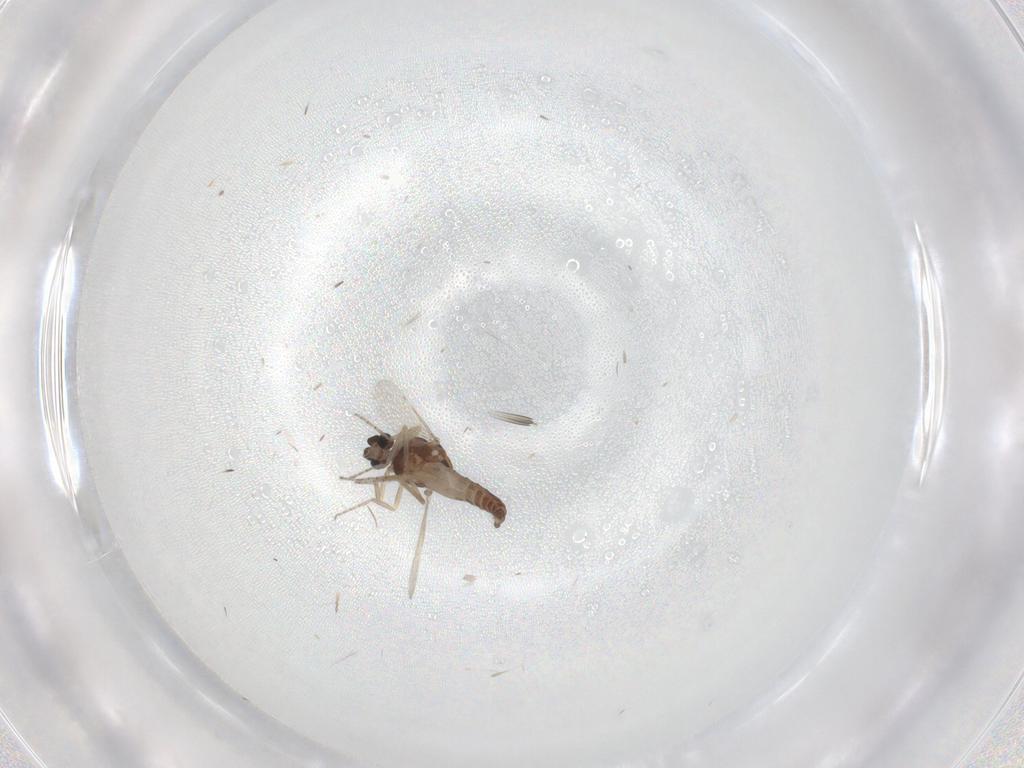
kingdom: Animalia
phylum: Arthropoda
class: Insecta
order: Diptera
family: Ceratopogonidae
